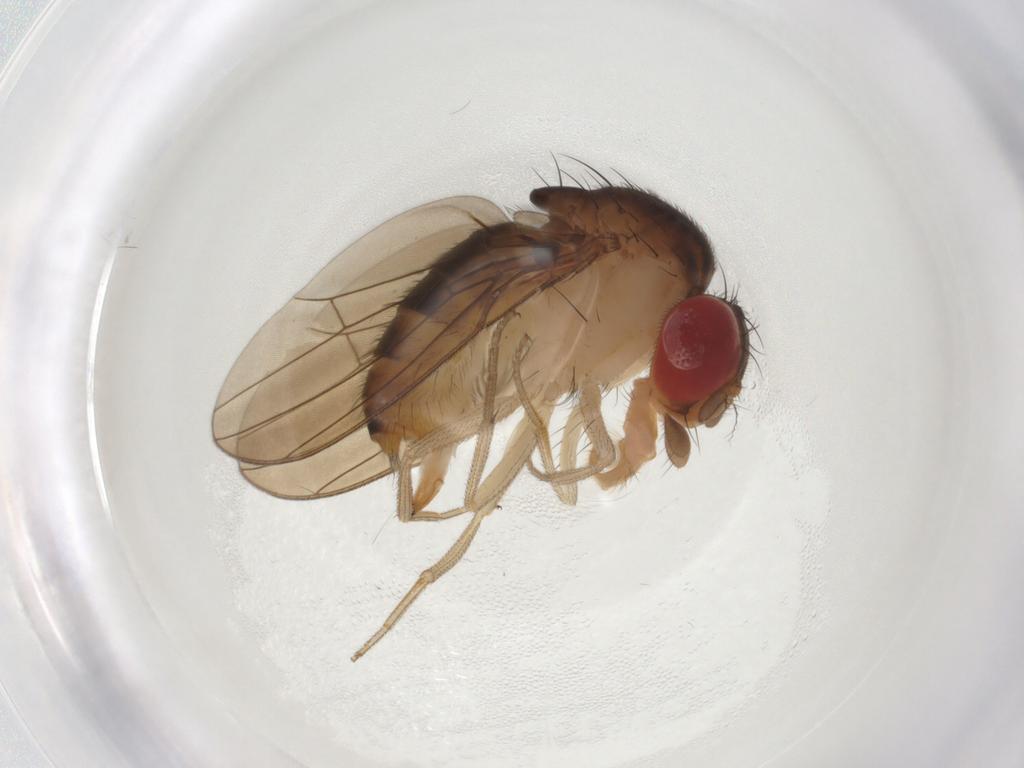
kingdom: Animalia
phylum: Arthropoda
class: Insecta
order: Diptera
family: Drosophilidae
